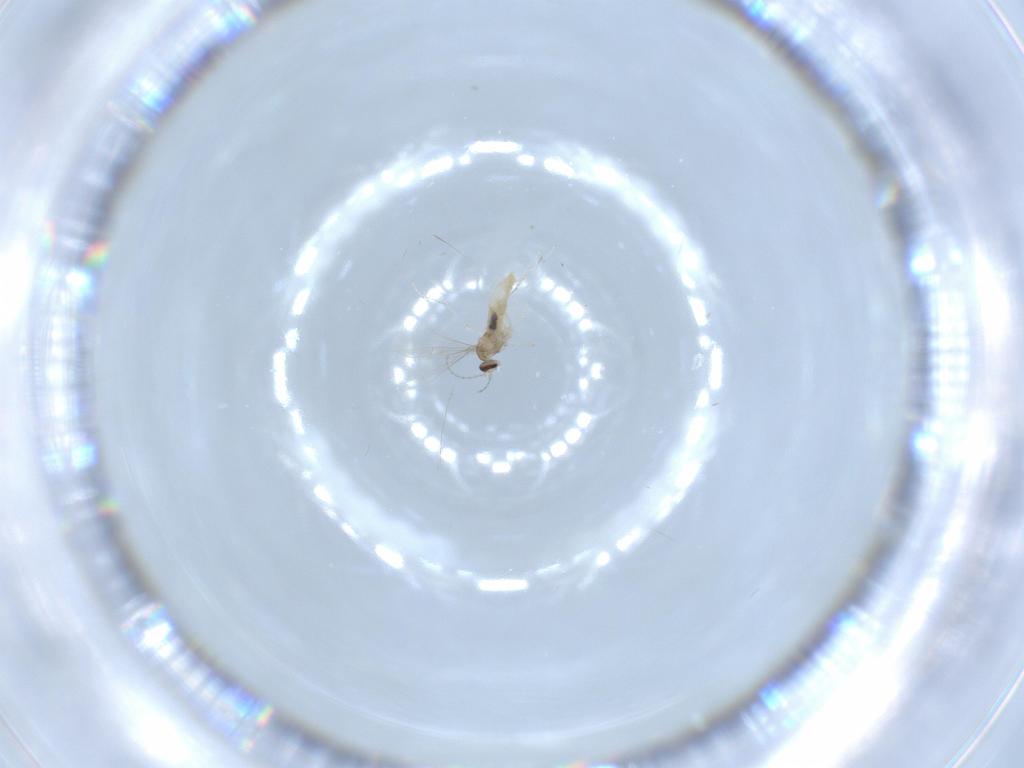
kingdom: Animalia
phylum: Arthropoda
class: Insecta
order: Diptera
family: Cecidomyiidae
